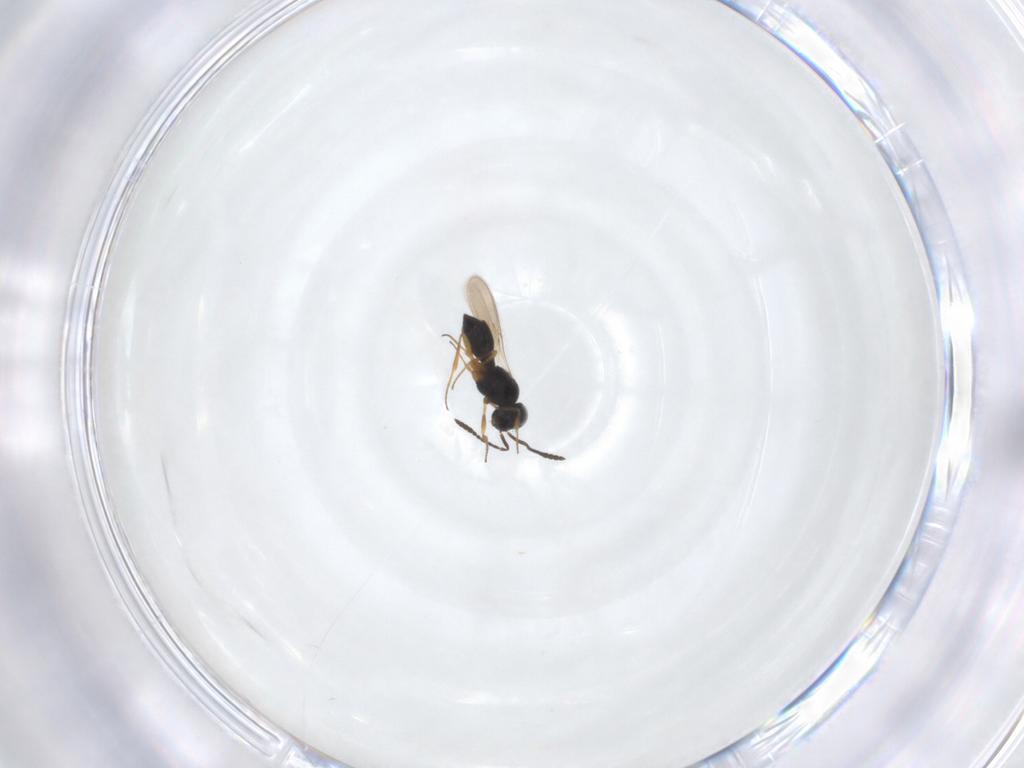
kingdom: Animalia
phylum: Arthropoda
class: Insecta
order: Hymenoptera
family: Scelionidae
